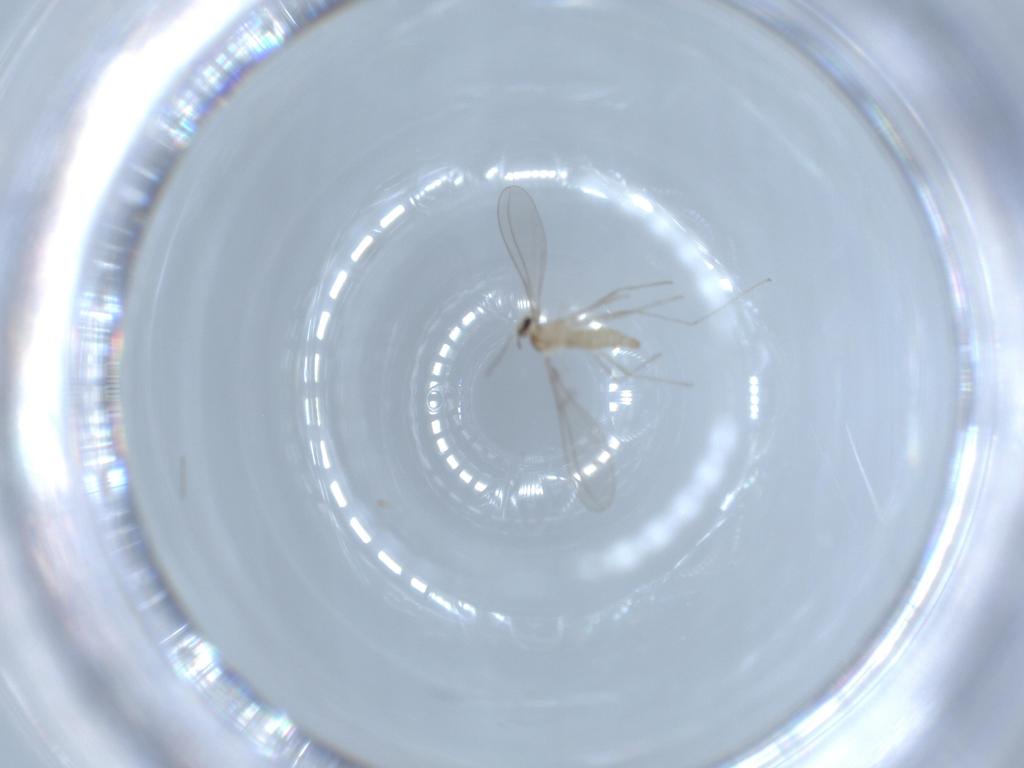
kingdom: Animalia
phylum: Arthropoda
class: Insecta
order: Diptera
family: Cecidomyiidae
